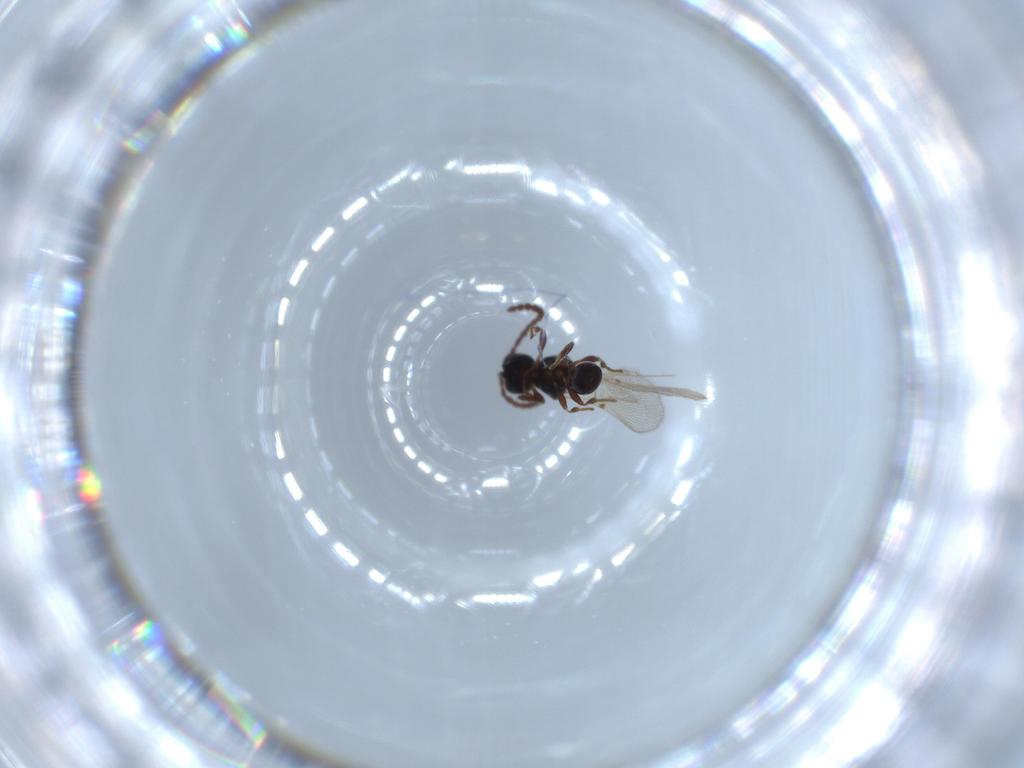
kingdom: Animalia
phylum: Arthropoda
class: Insecta
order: Hymenoptera
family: Diapriidae
